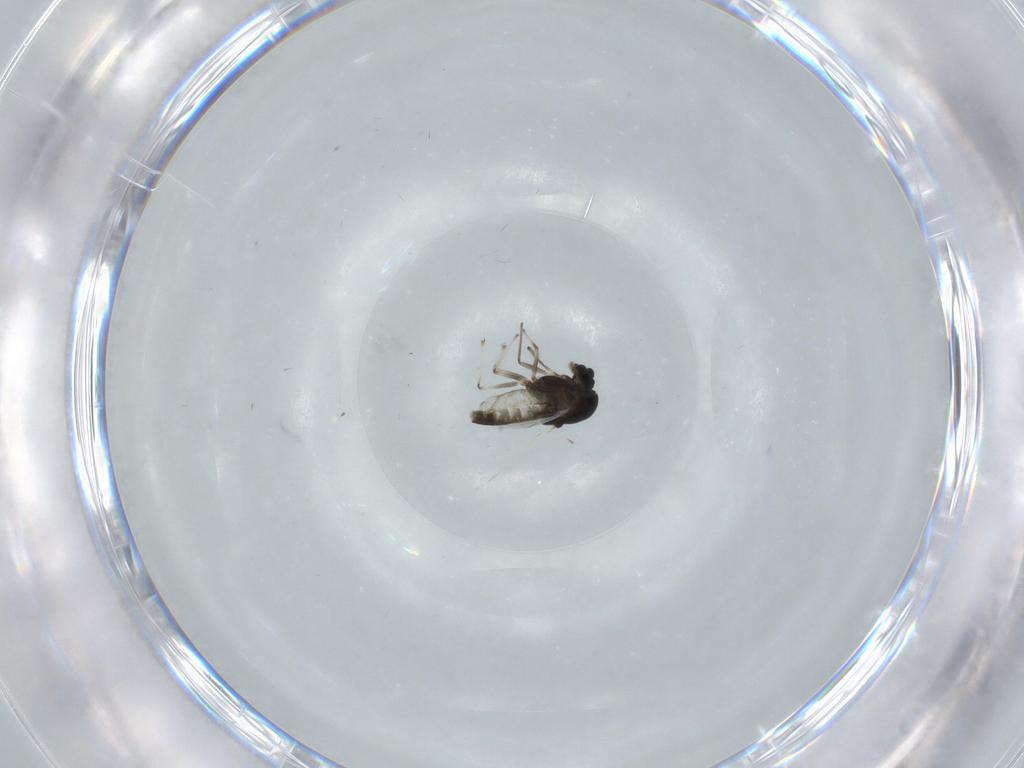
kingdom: Animalia
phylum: Arthropoda
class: Insecta
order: Diptera
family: Chironomidae
